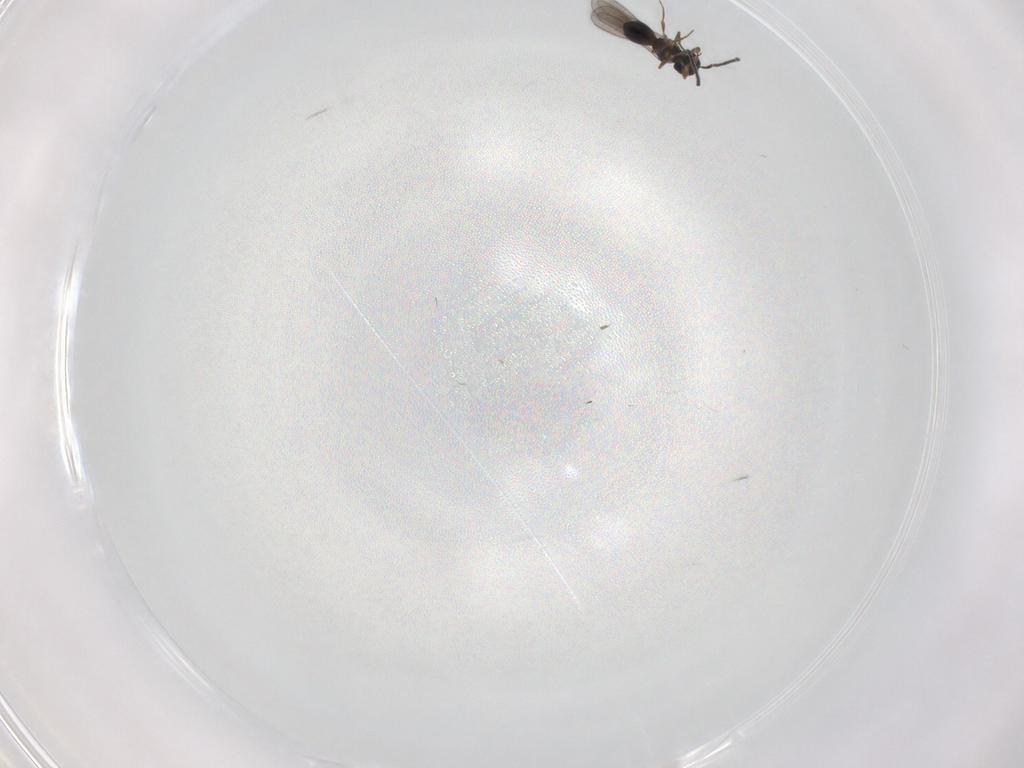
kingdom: Animalia
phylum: Arthropoda
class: Insecta
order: Hymenoptera
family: Scelionidae
